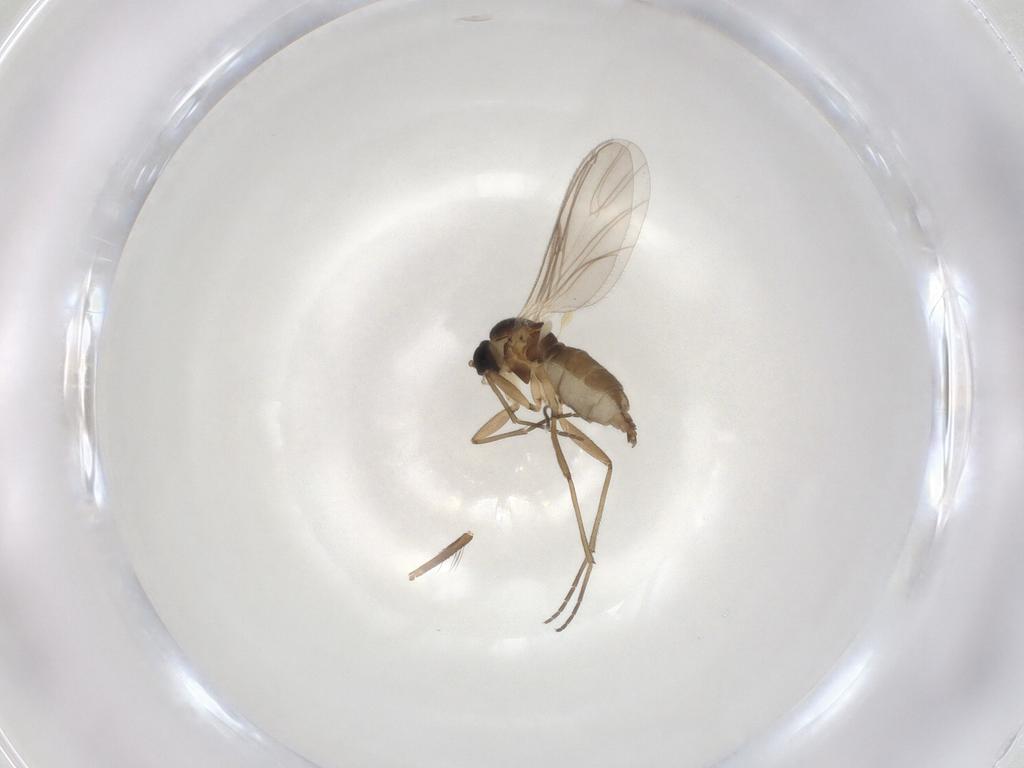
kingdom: Animalia
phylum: Arthropoda
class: Insecta
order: Diptera
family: Culicidae
